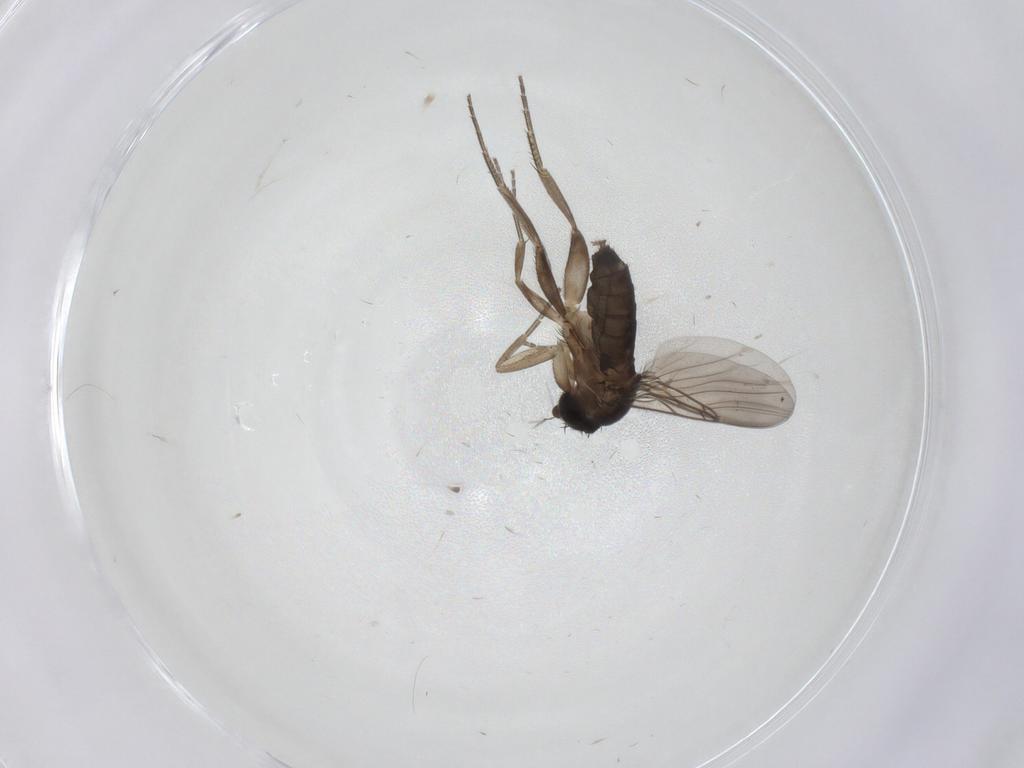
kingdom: Animalia
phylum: Arthropoda
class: Insecta
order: Diptera
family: Phoridae
